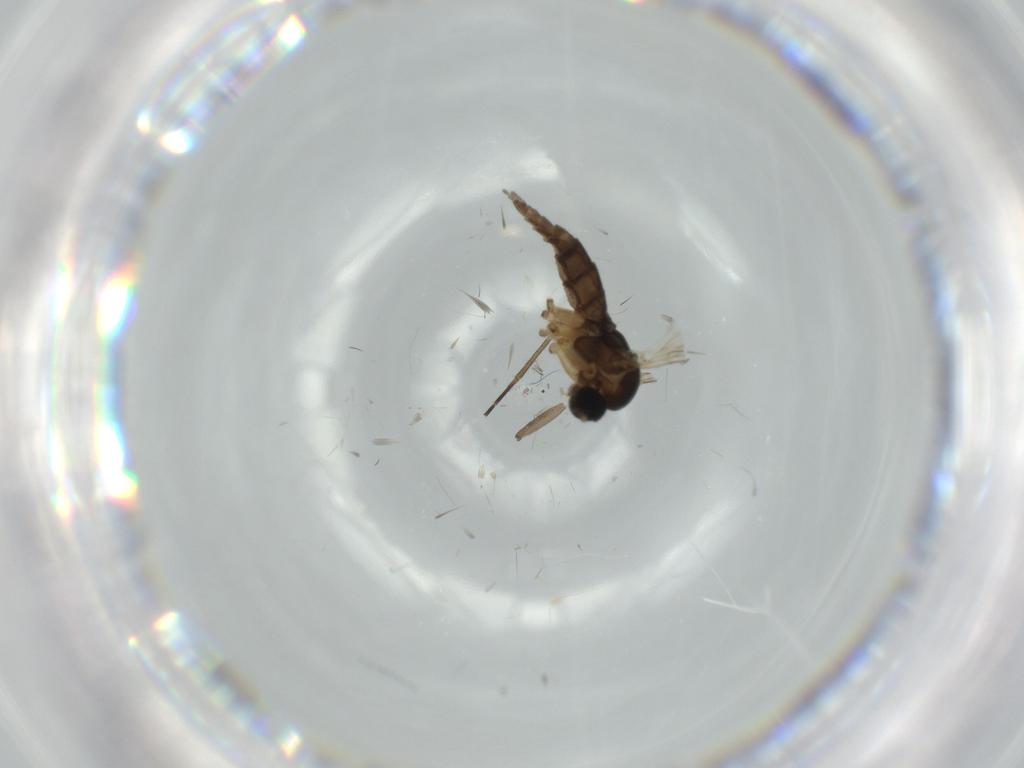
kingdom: Animalia
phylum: Arthropoda
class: Insecta
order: Diptera
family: Sciaridae
